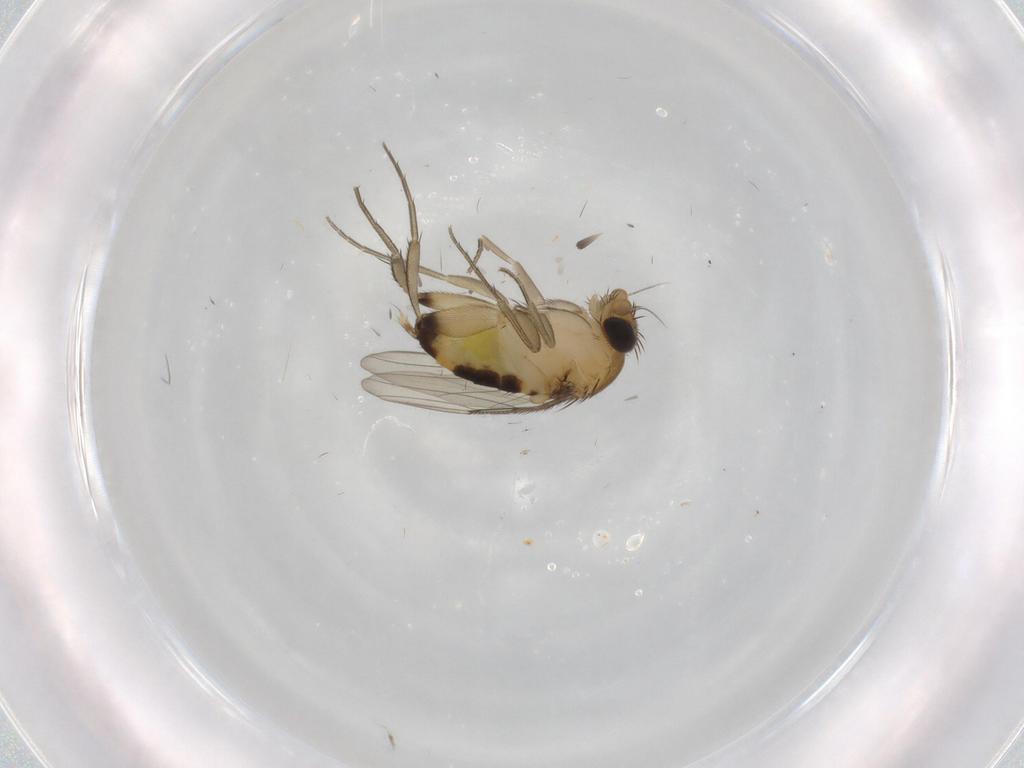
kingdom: Animalia
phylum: Arthropoda
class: Insecta
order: Diptera
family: Phoridae
